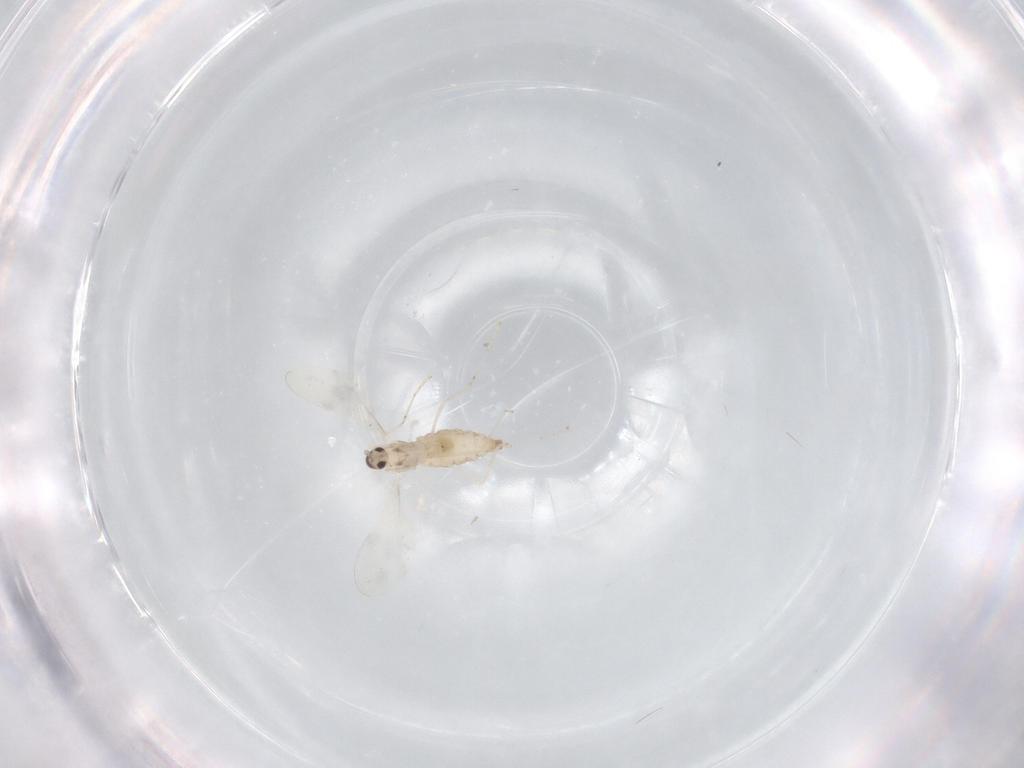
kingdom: Animalia
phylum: Arthropoda
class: Insecta
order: Diptera
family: Cecidomyiidae
